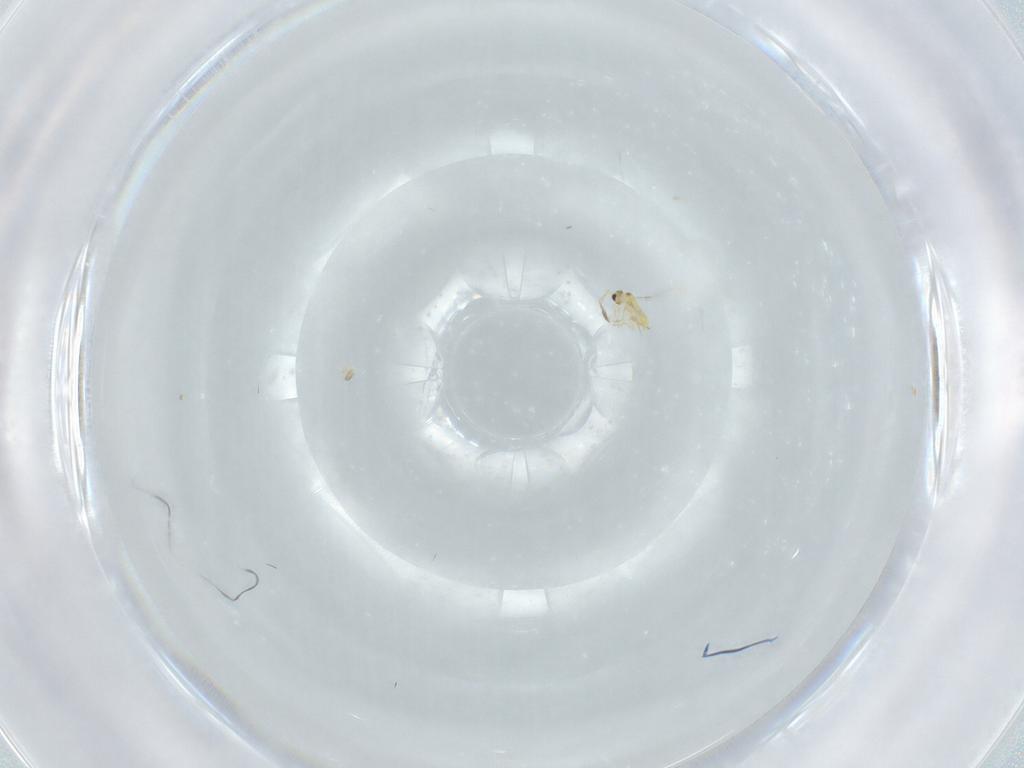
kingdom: Animalia
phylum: Arthropoda
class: Insecta
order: Hymenoptera
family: Mymaridae
